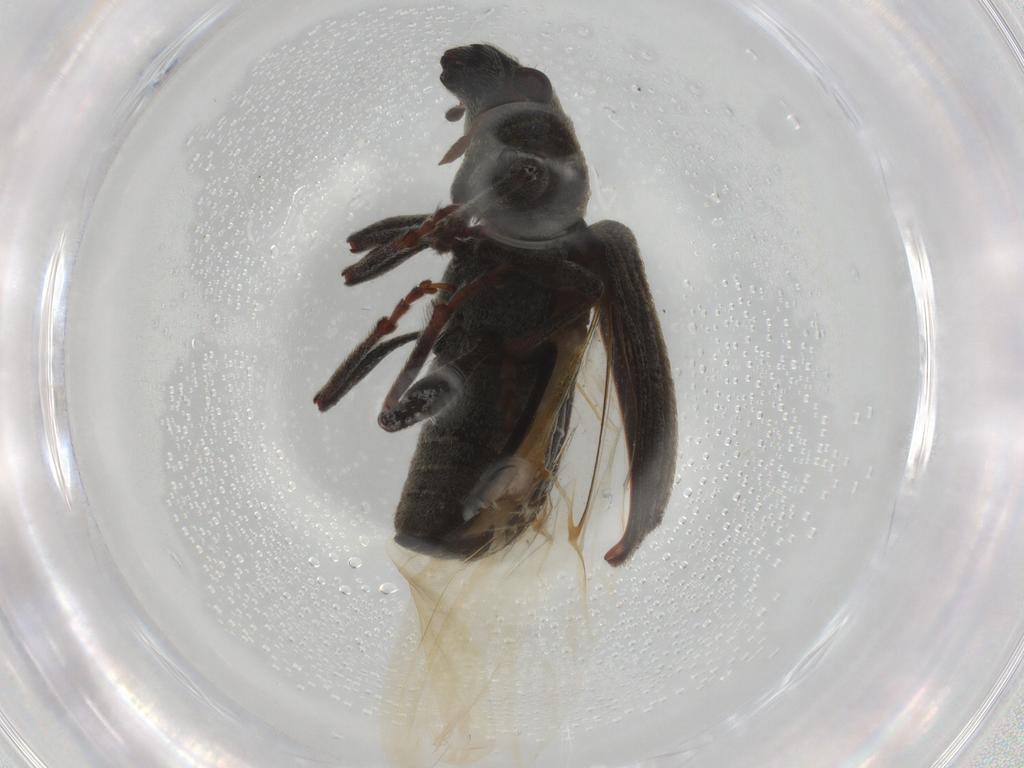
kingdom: Animalia
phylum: Arthropoda
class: Insecta
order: Coleoptera
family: Curculionidae
